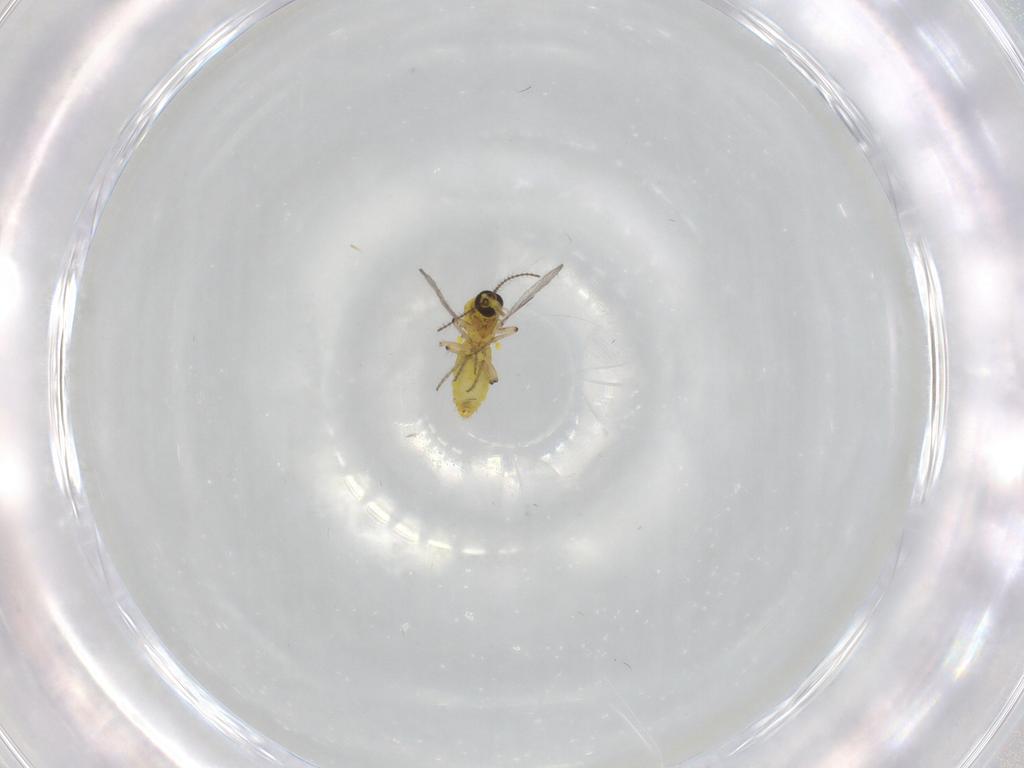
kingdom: Animalia
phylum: Arthropoda
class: Insecta
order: Diptera
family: Ceratopogonidae
